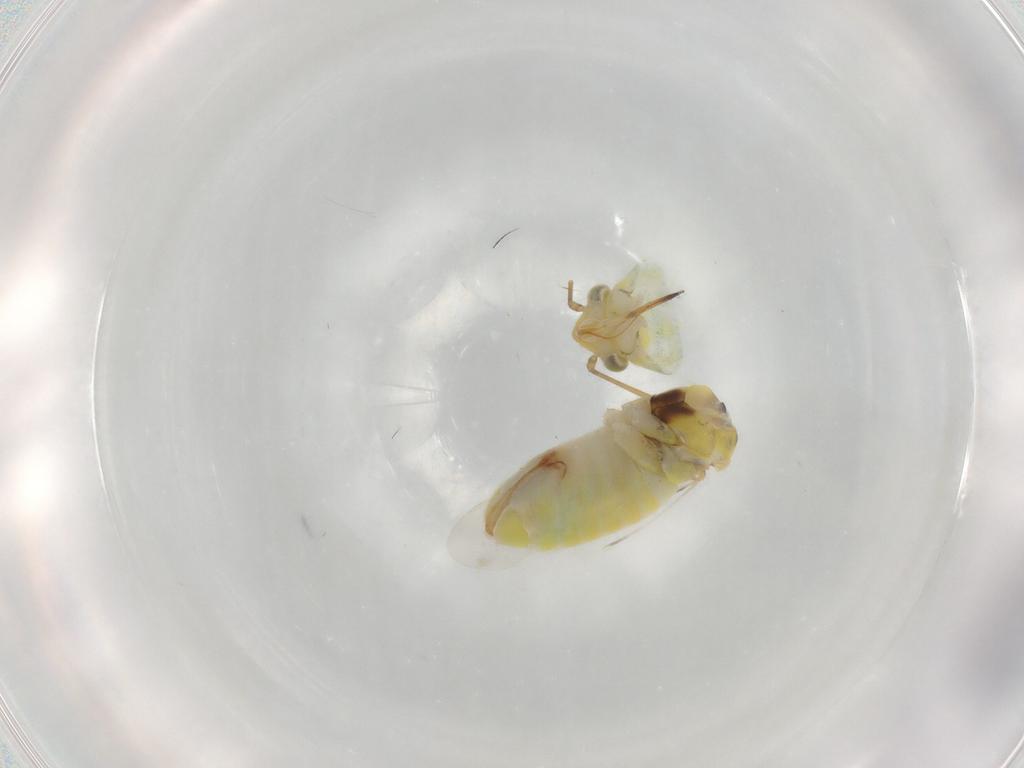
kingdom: Animalia
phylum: Arthropoda
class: Insecta
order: Hemiptera
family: Miridae
